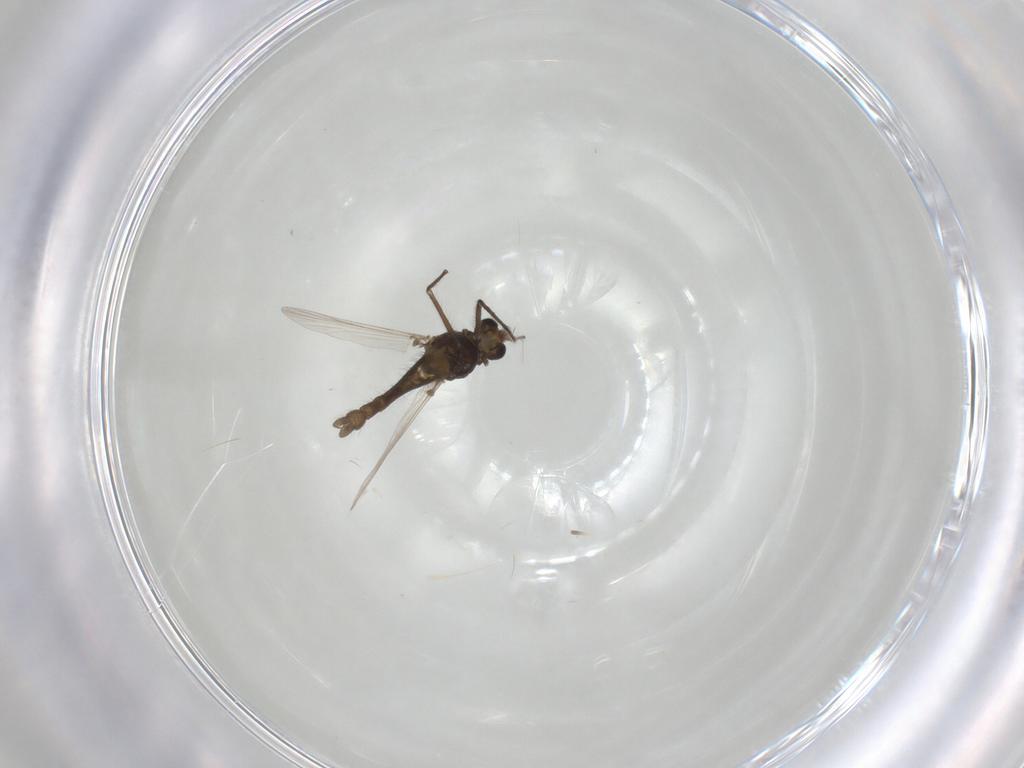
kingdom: Animalia
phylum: Arthropoda
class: Insecta
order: Diptera
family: Chironomidae
